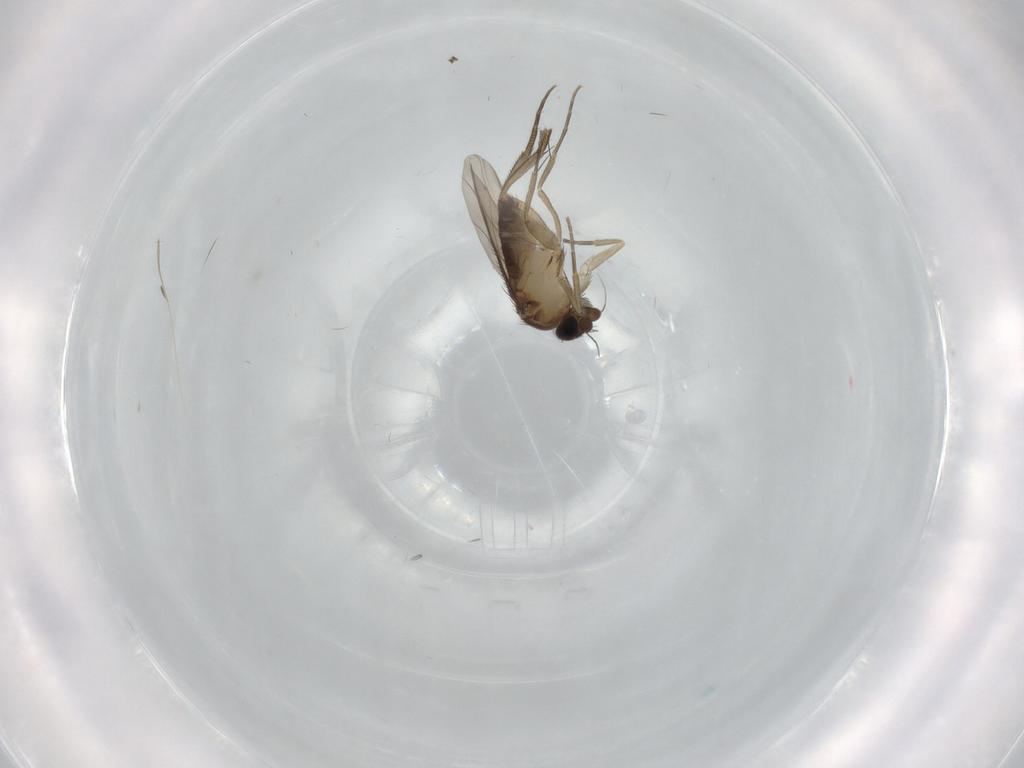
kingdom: Animalia
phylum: Arthropoda
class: Insecta
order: Diptera
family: Phoridae
